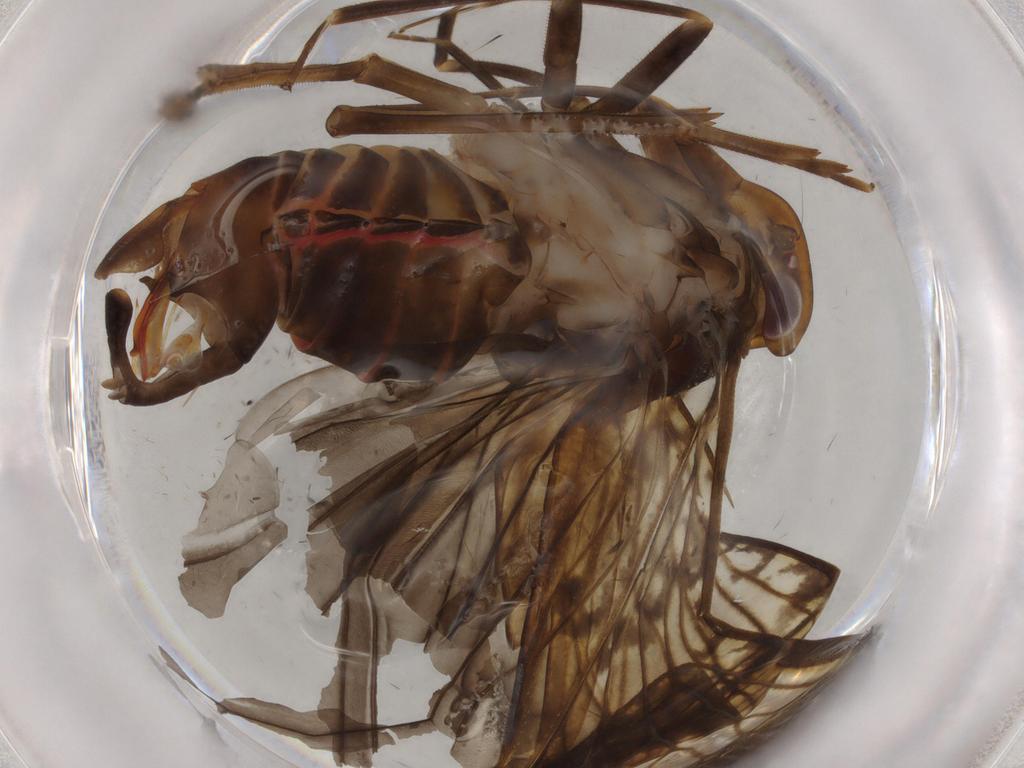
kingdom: Animalia
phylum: Arthropoda
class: Insecta
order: Hemiptera
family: Cixiidae
